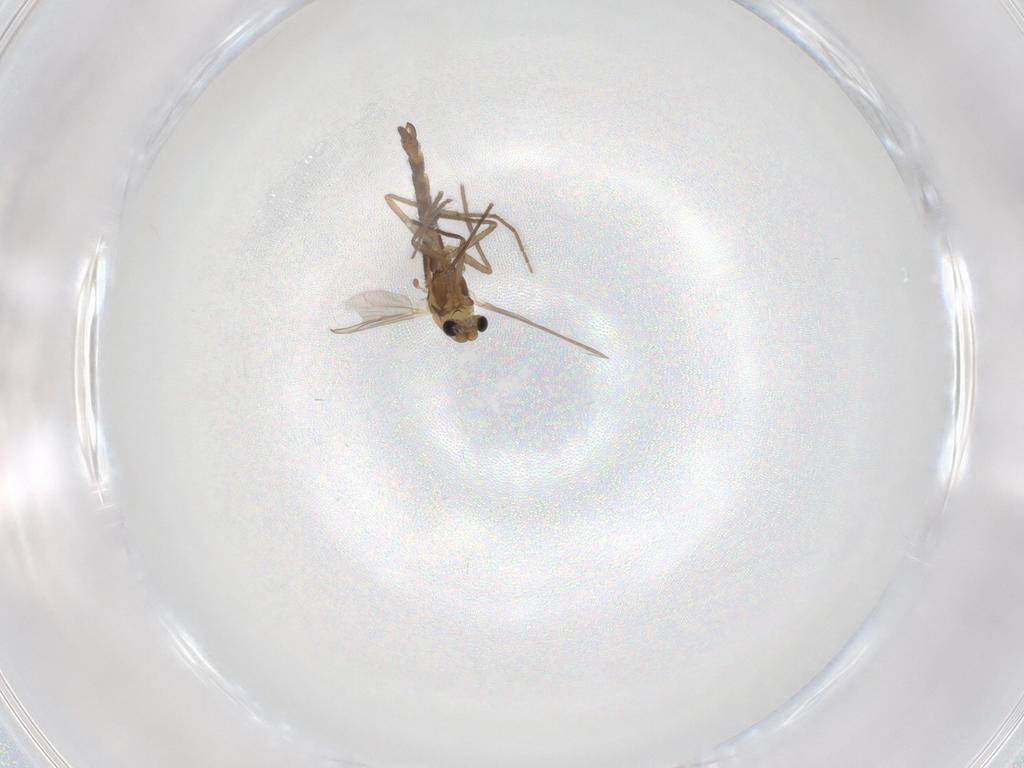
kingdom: Animalia
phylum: Arthropoda
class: Insecta
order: Diptera
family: Chironomidae
